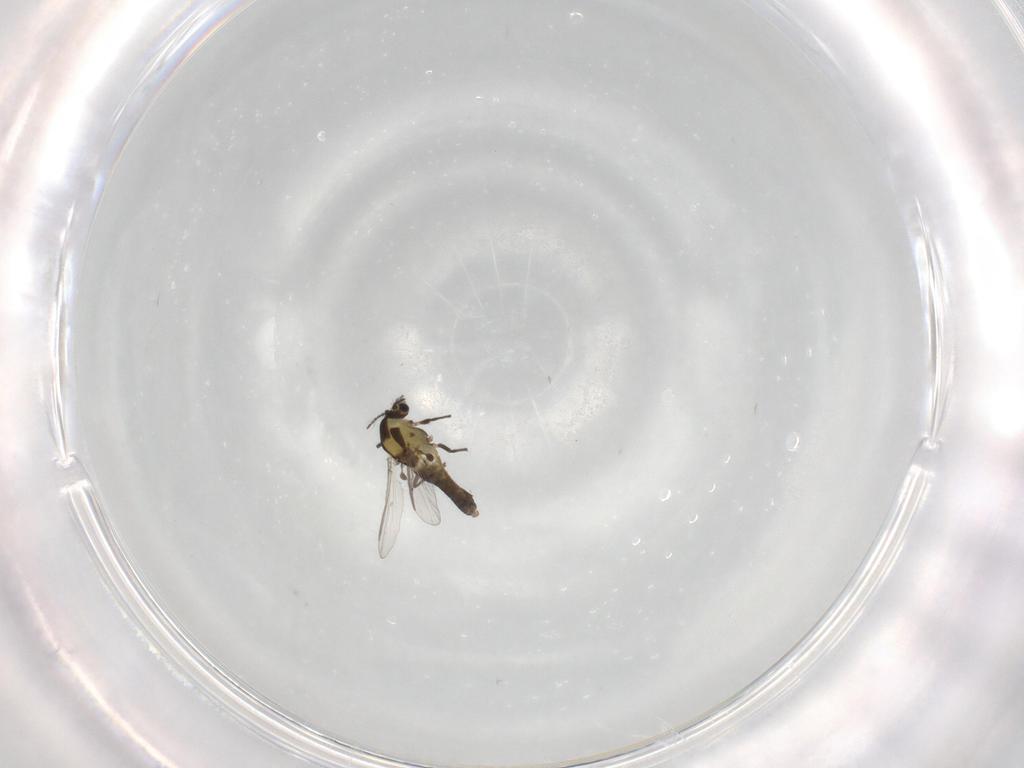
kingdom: Animalia
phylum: Arthropoda
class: Insecta
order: Diptera
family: Chironomidae
